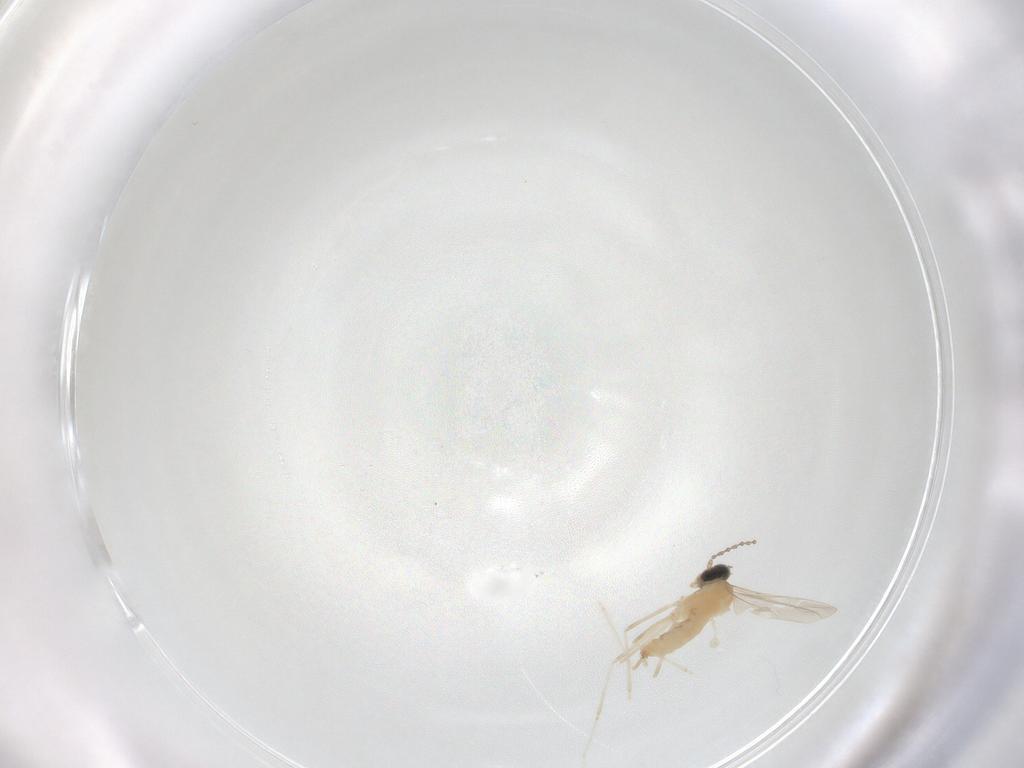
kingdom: Animalia
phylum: Arthropoda
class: Insecta
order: Diptera
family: Cecidomyiidae
